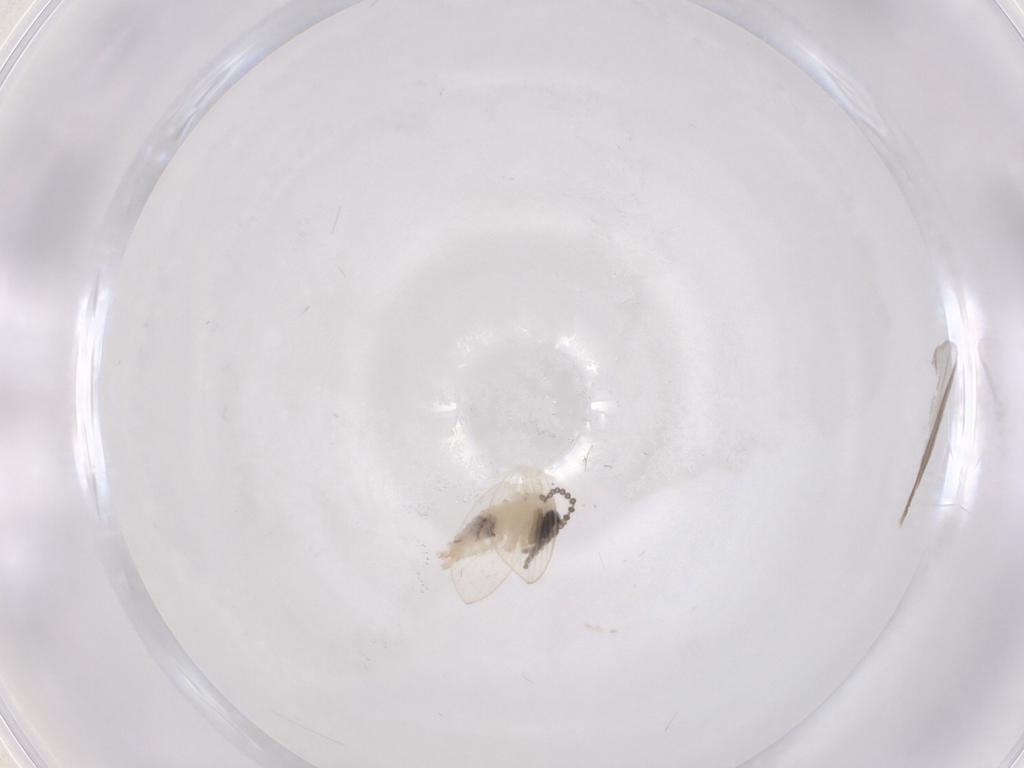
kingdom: Animalia
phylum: Arthropoda
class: Insecta
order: Diptera
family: Psychodidae
